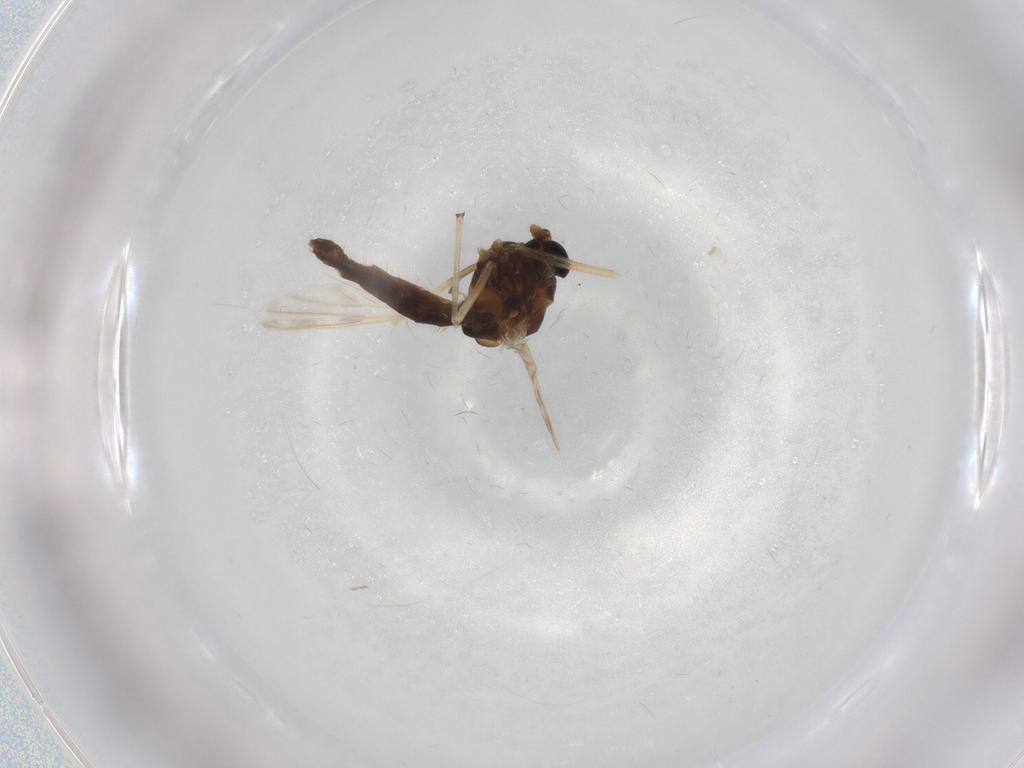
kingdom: Animalia
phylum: Arthropoda
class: Insecta
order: Diptera
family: Chironomidae
